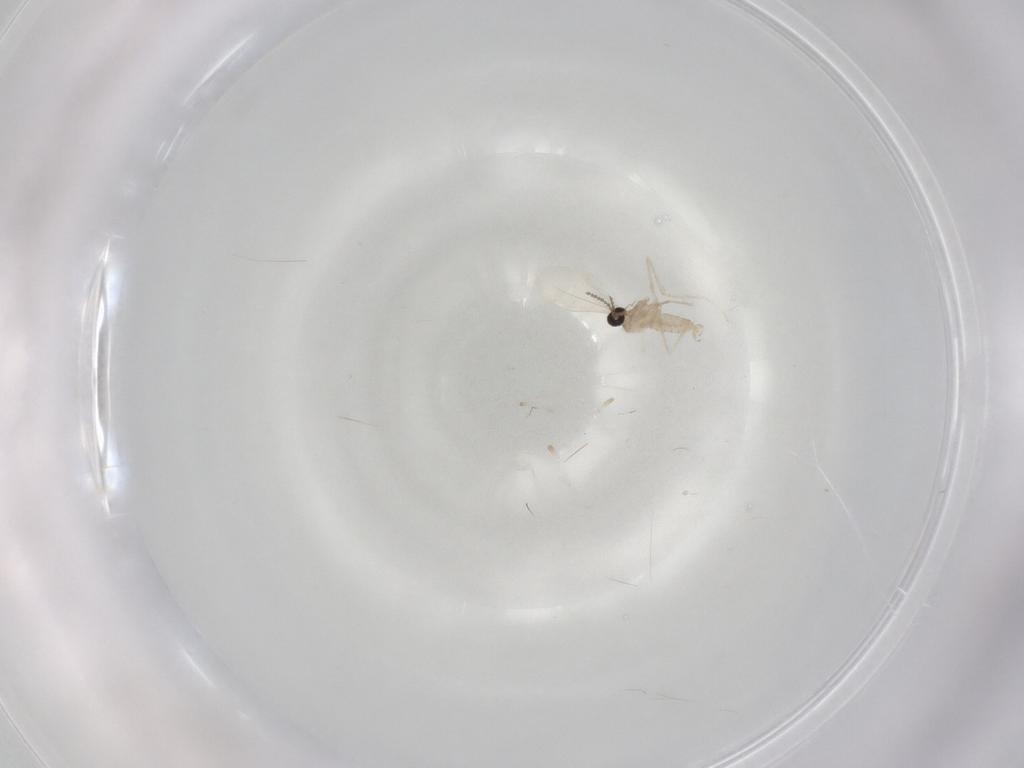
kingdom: Animalia
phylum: Arthropoda
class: Insecta
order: Diptera
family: Cecidomyiidae
